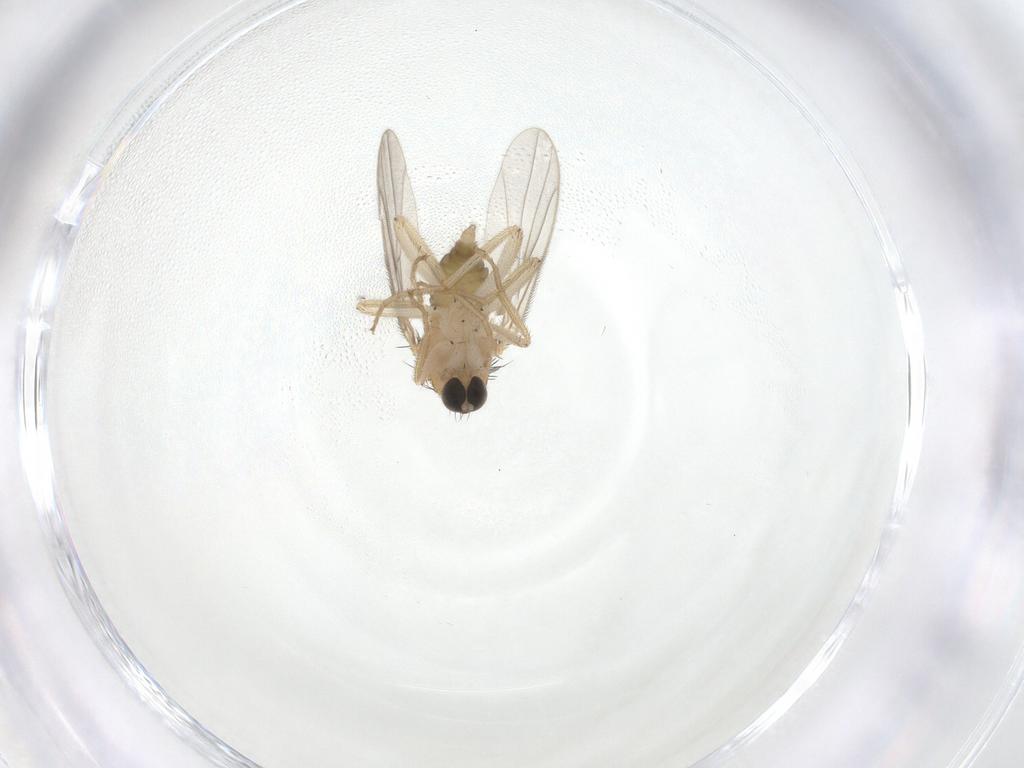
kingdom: Animalia
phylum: Arthropoda
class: Insecta
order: Diptera
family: Hybotidae
